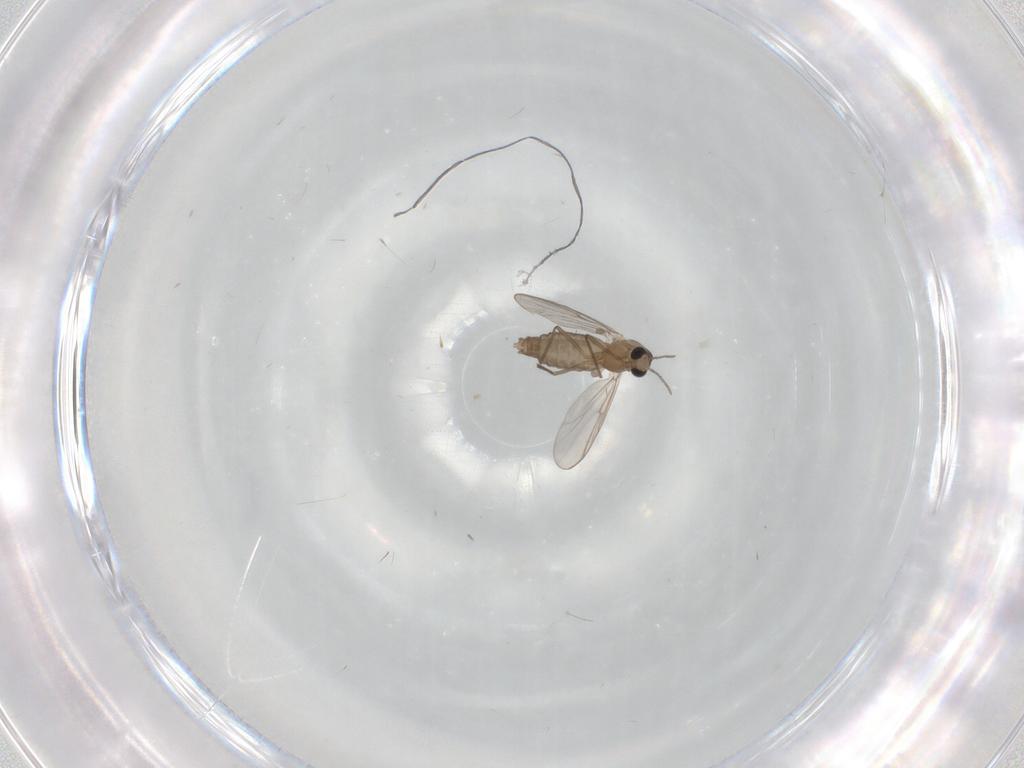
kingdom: Animalia
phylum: Arthropoda
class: Insecta
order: Diptera
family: Chironomidae
